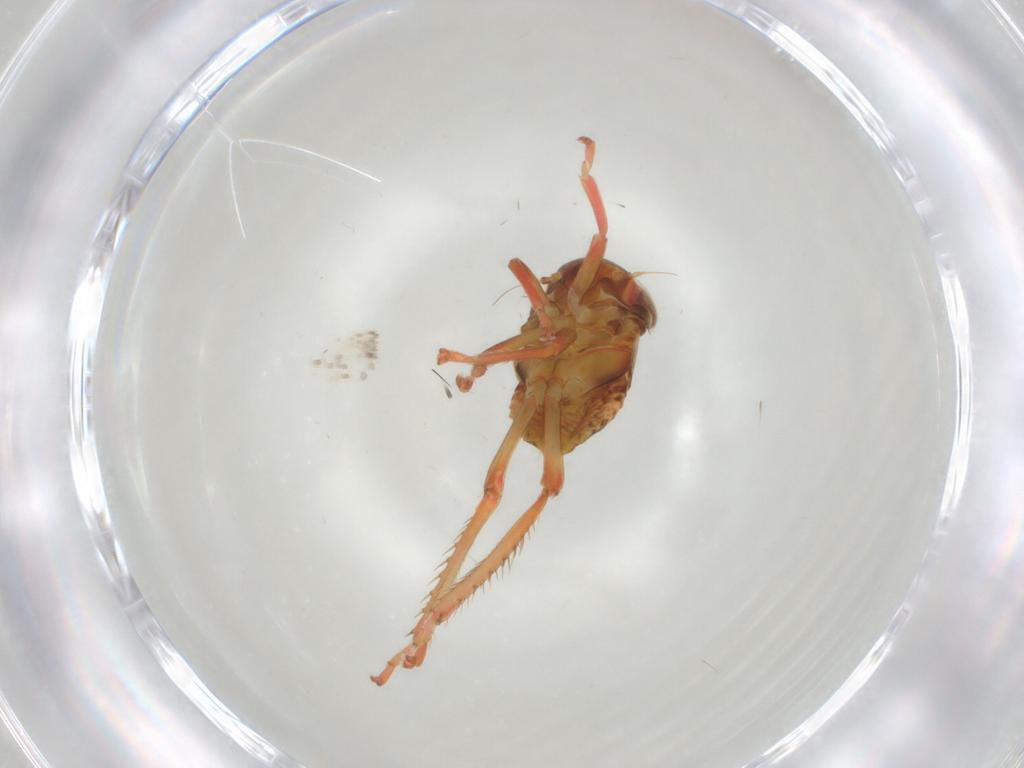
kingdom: Animalia
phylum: Arthropoda
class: Insecta
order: Hemiptera
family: Cicadellidae
